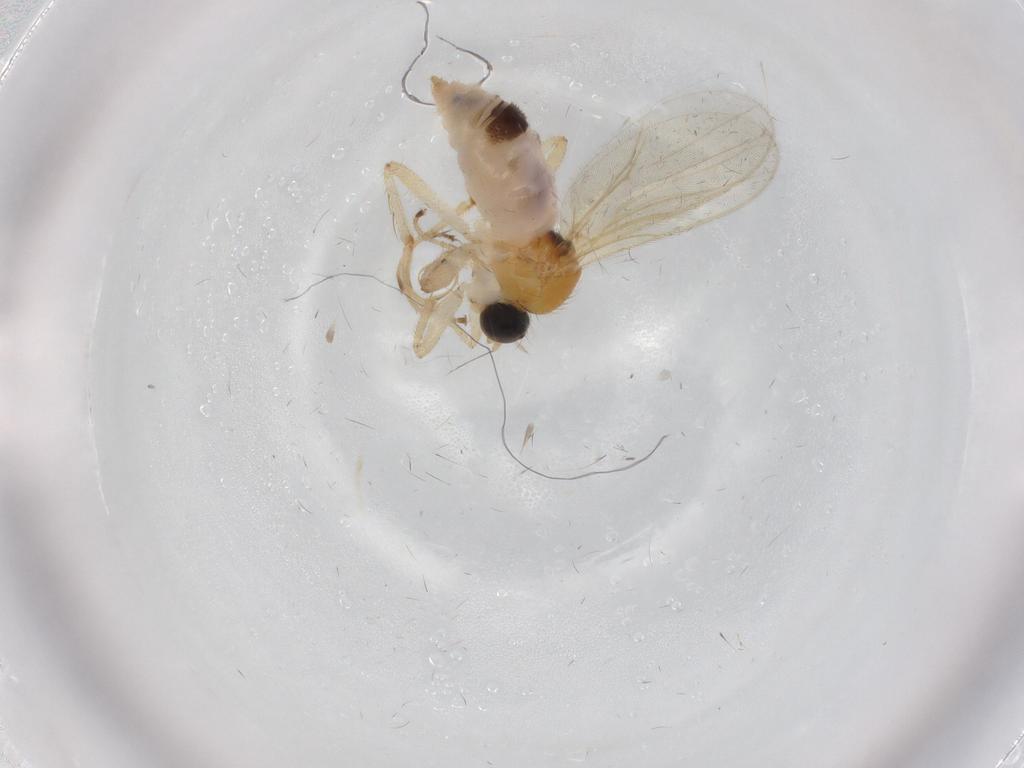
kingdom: Animalia
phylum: Arthropoda
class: Insecta
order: Diptera
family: Hybotidae
